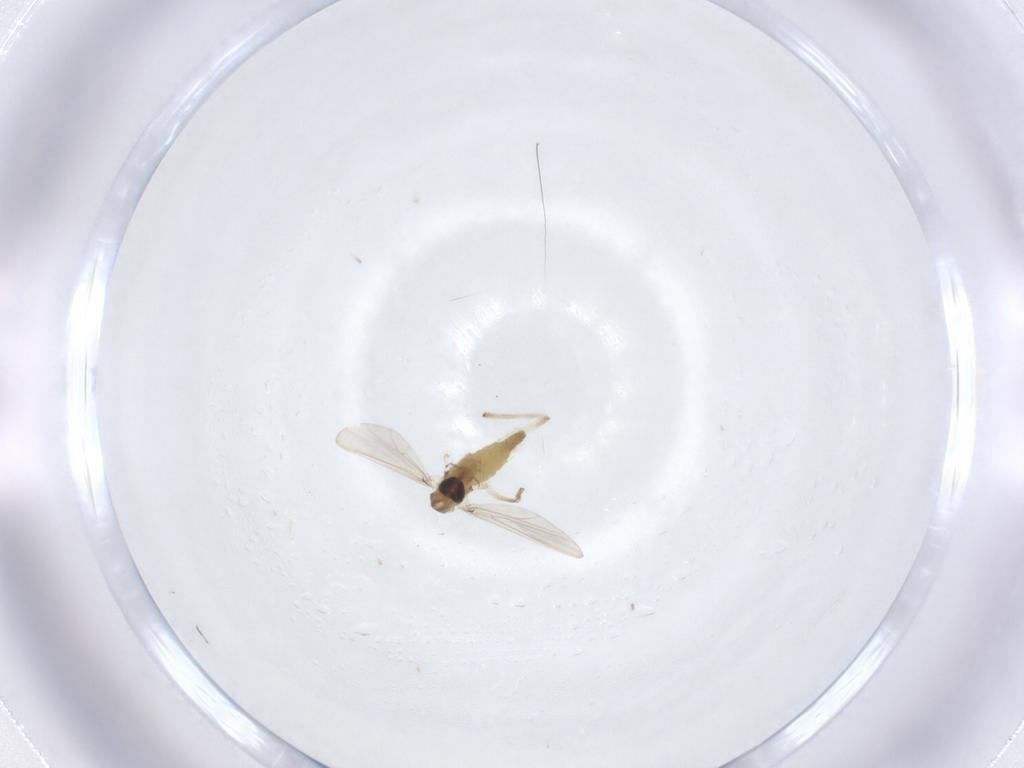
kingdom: Animalia
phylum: Arthropoda
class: Insecta
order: Diptera
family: Chironomidae
